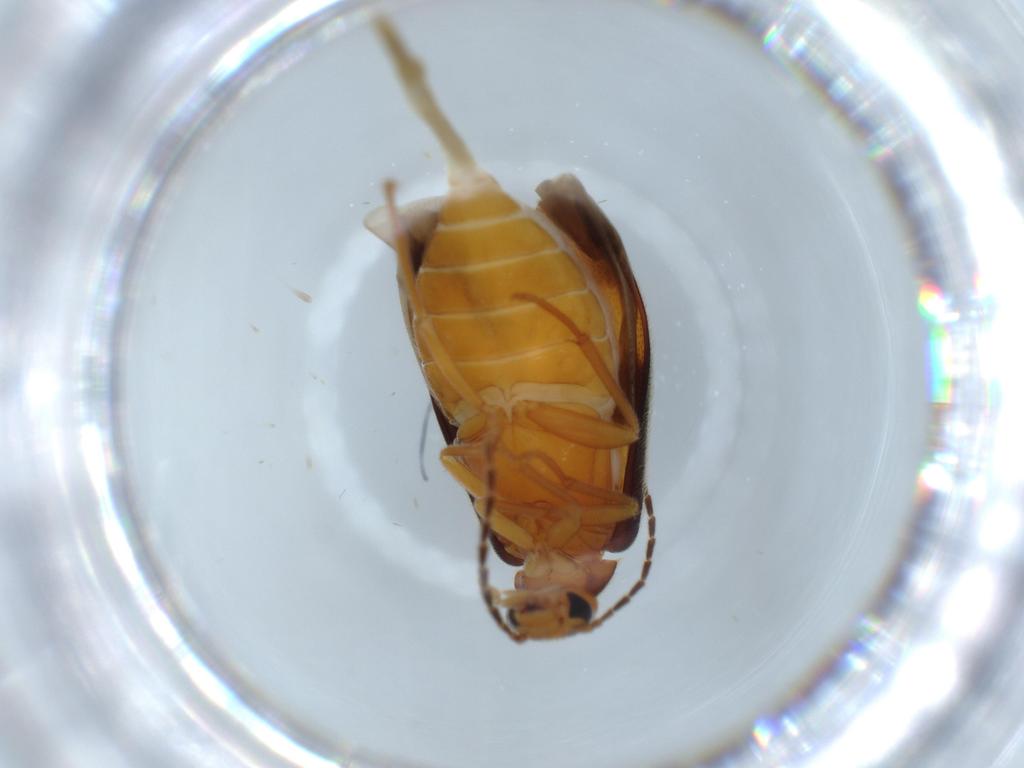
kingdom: Animalia
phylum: Arthropoda
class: Insecta
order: Coleoptera
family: Scraptiidae
